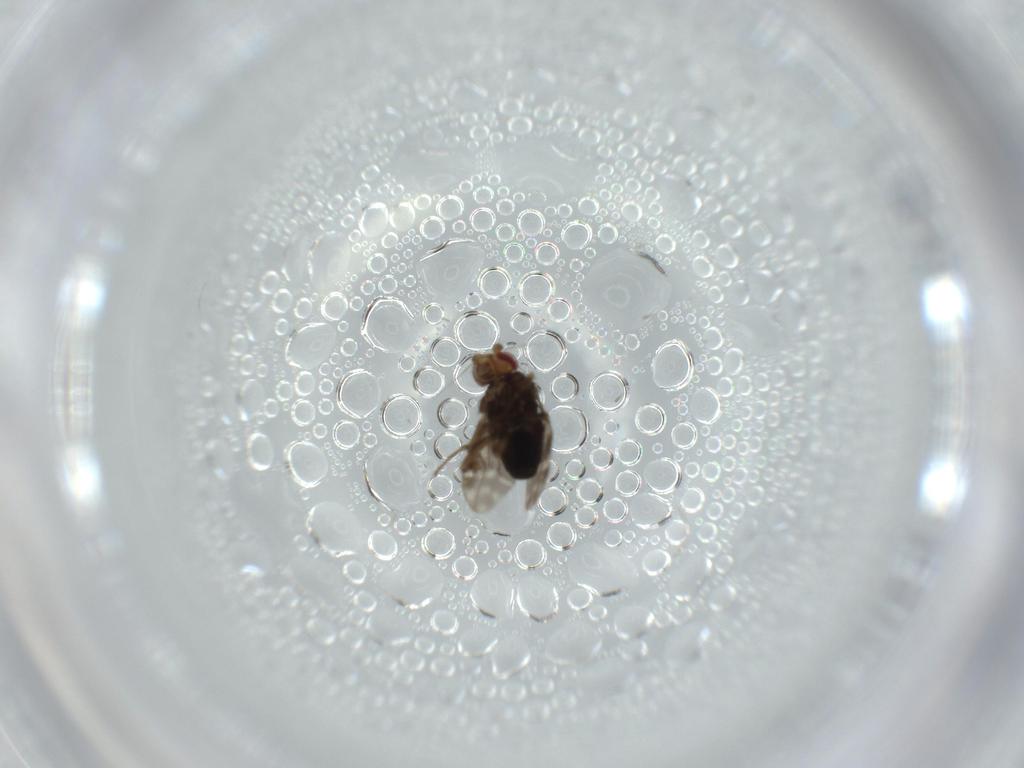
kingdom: Animalia
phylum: Arthropoda
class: Insecta
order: Diptera
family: Sphaeroceridae
